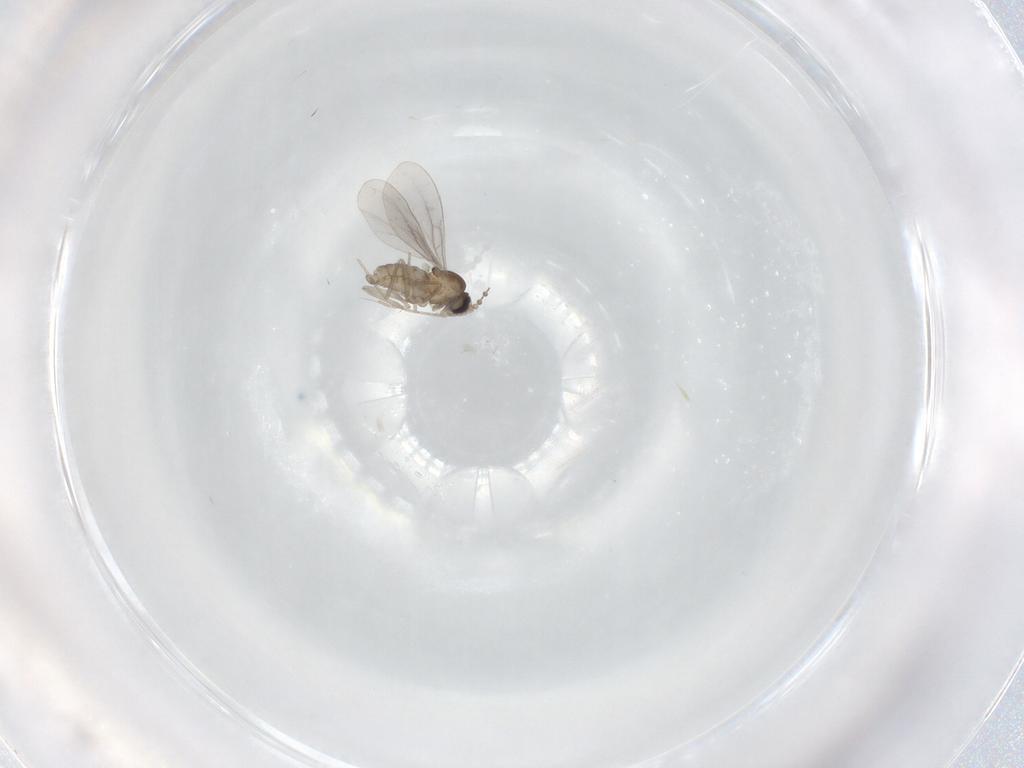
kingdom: Animalia
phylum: Arthropoda
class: Insecta
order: Diptera
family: Cecidomyiidae
